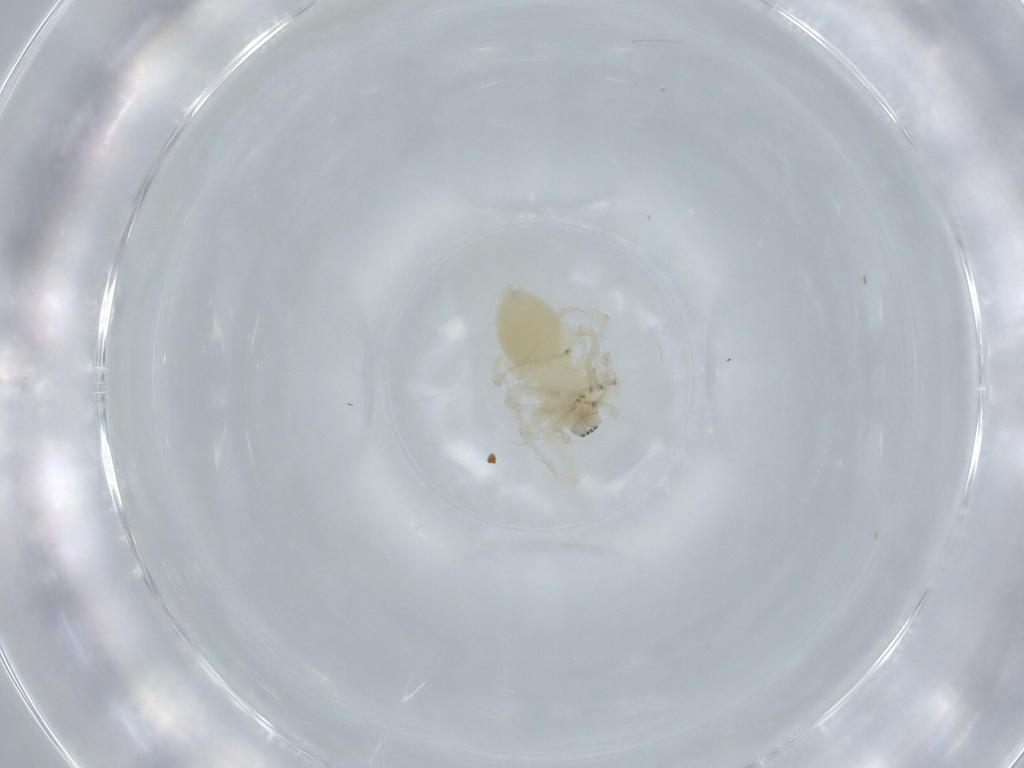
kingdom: Animalia
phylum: Arthropoda
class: Arachnida
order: Araneae
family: Anyphaenidae
